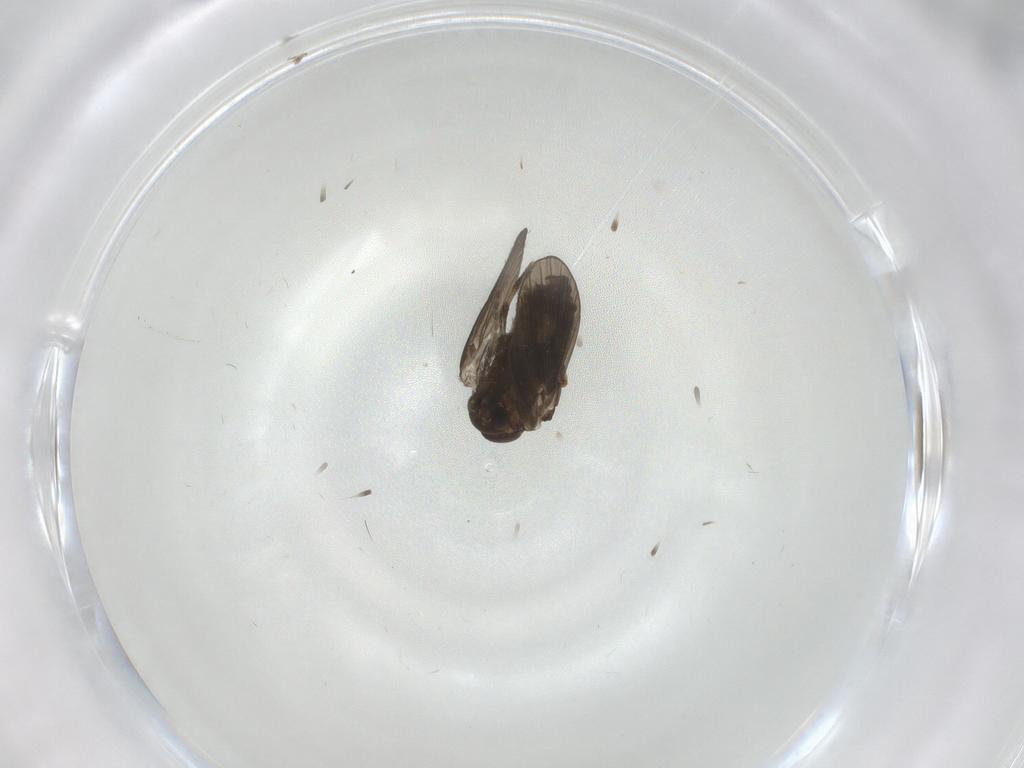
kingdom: Animalia
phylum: Arthropoda
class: Insecta
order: Diptera
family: Psychodidae
